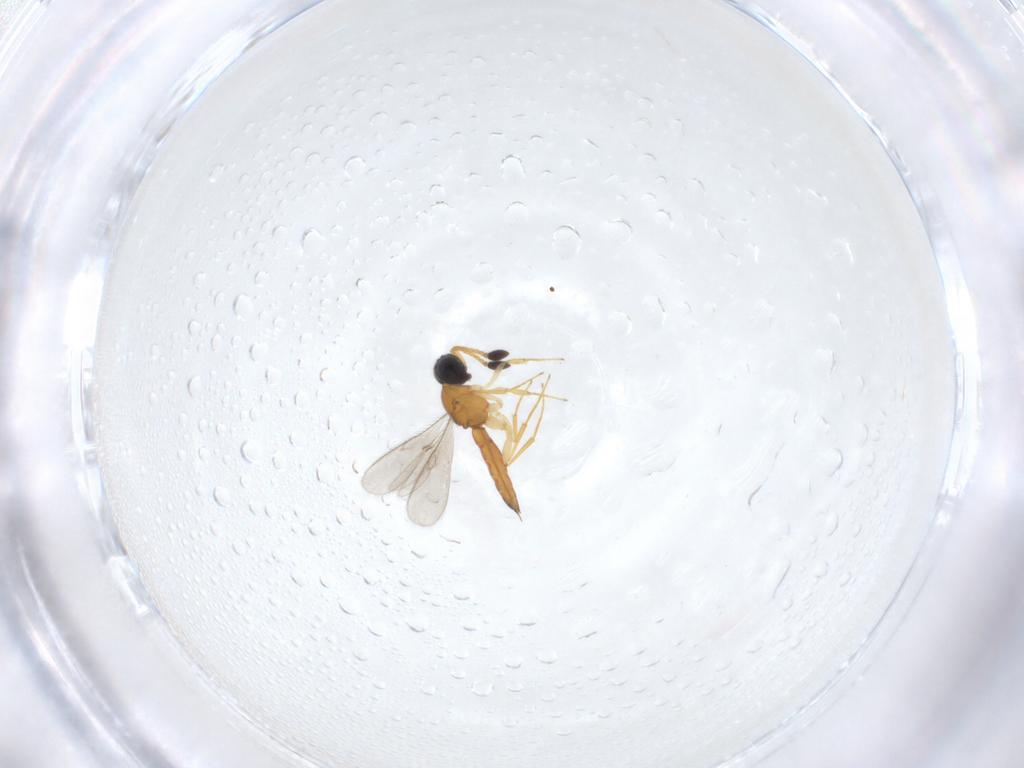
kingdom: Animalia
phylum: Arthropoda
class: Insecta
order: Hymenoptera
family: Scelionidae
